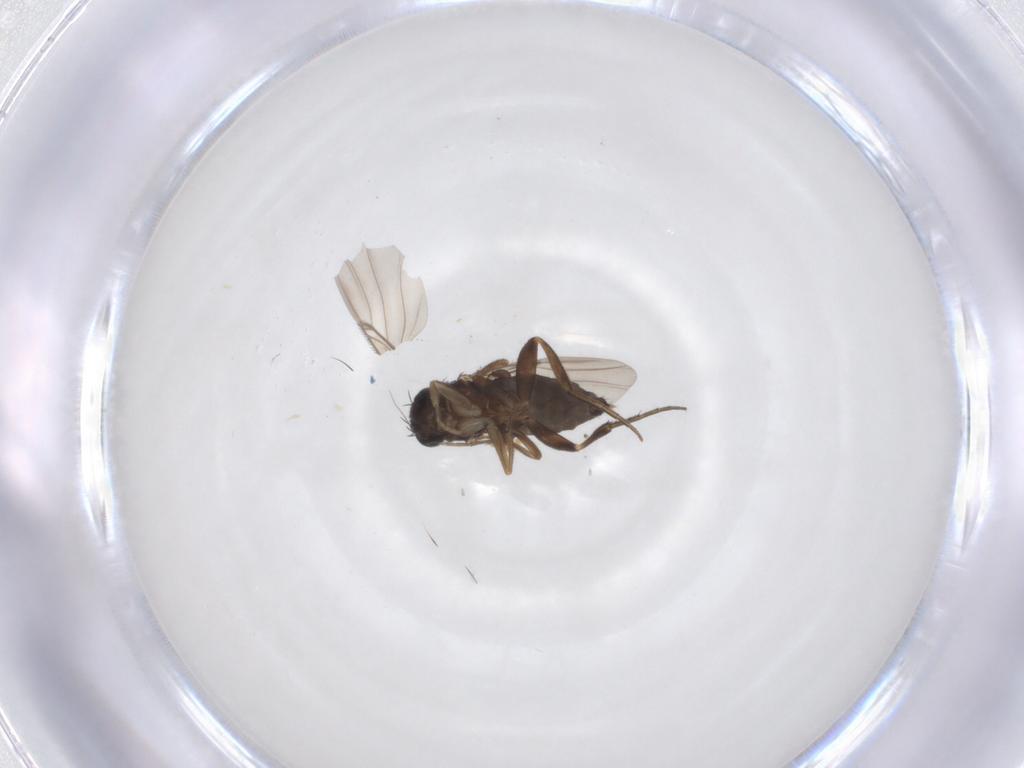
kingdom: Animalia
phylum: Arthropoda
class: Insecta
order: Diptera
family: Phoridae
